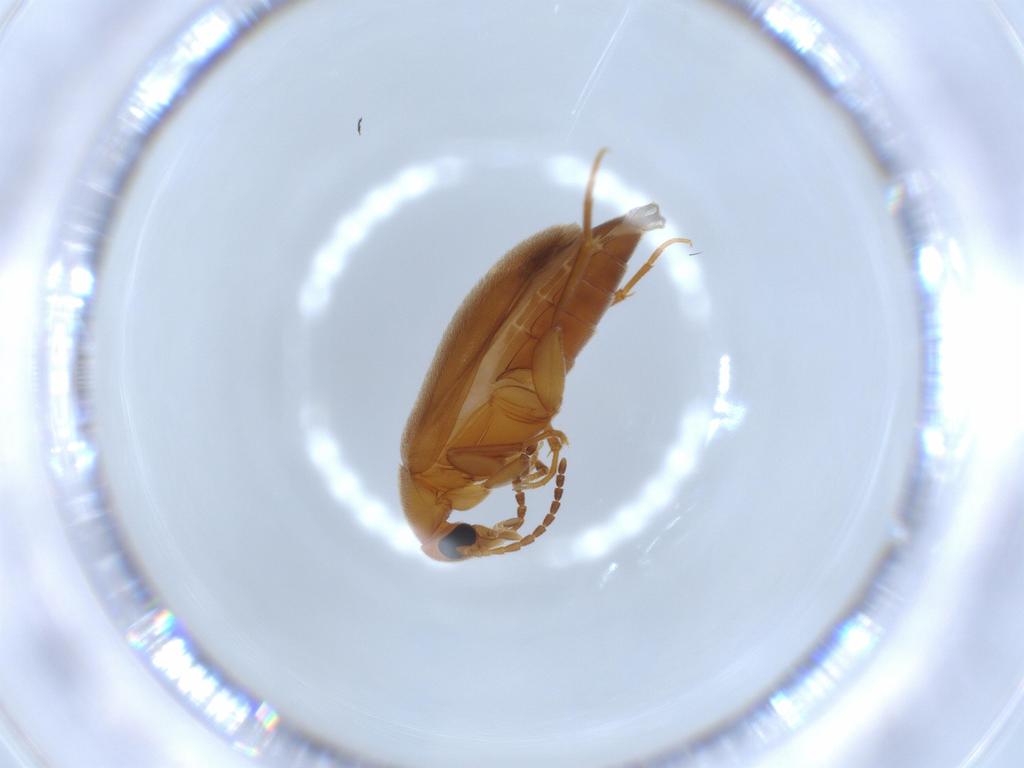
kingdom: Animalia
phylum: Arthropoda
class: Insecta
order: Coleoptera
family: Scraptiidae
